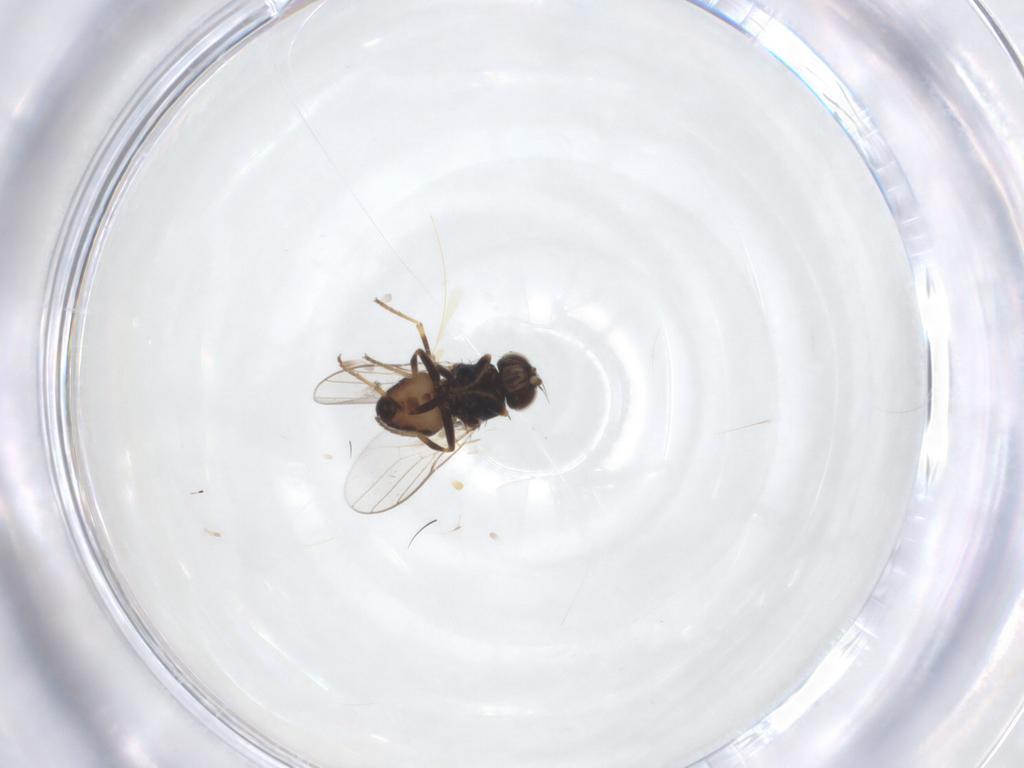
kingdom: Animalia
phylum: Arthropoda
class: Insecta
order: Diptera
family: Chloropidae
